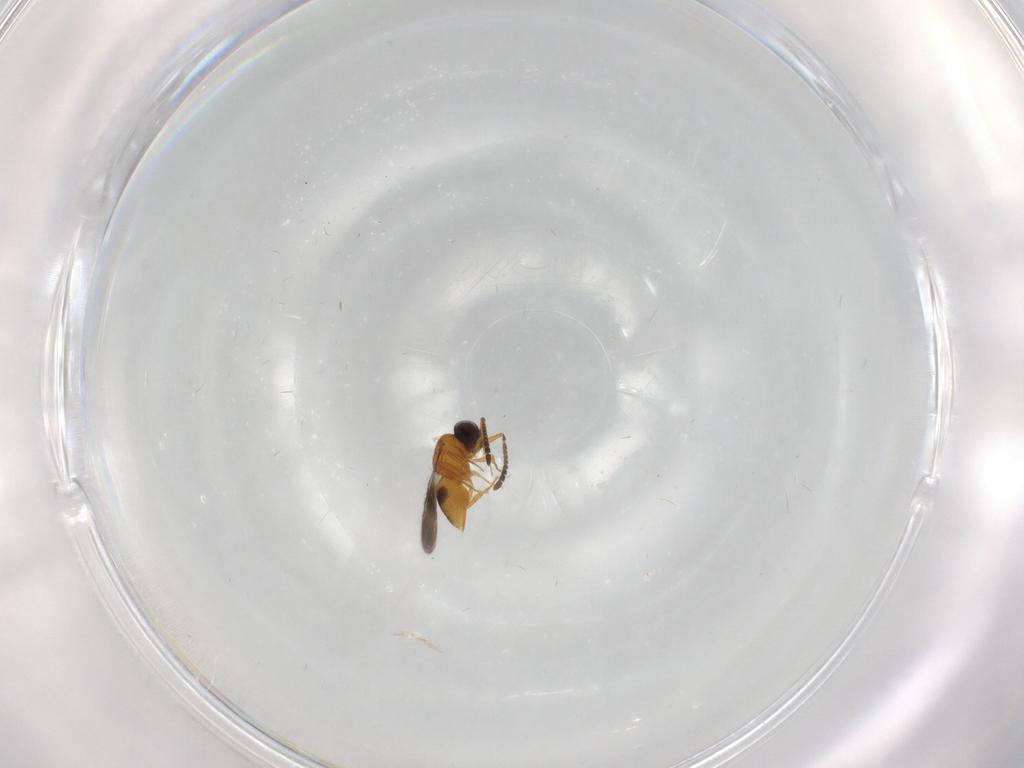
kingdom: Animalia
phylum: Arthropoda
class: Insecta
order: Hymenoptera
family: Ceraphronidae
